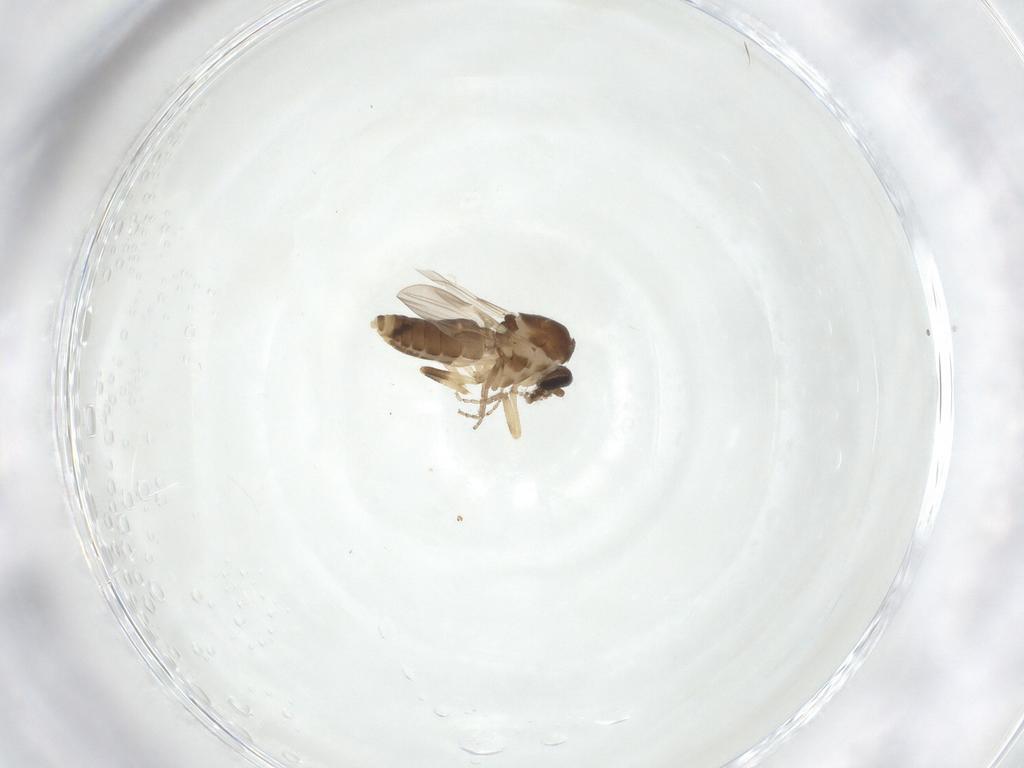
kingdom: Animalia
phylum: Arthropoda
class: Insecta
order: Diptera
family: Ceratopogonidae
